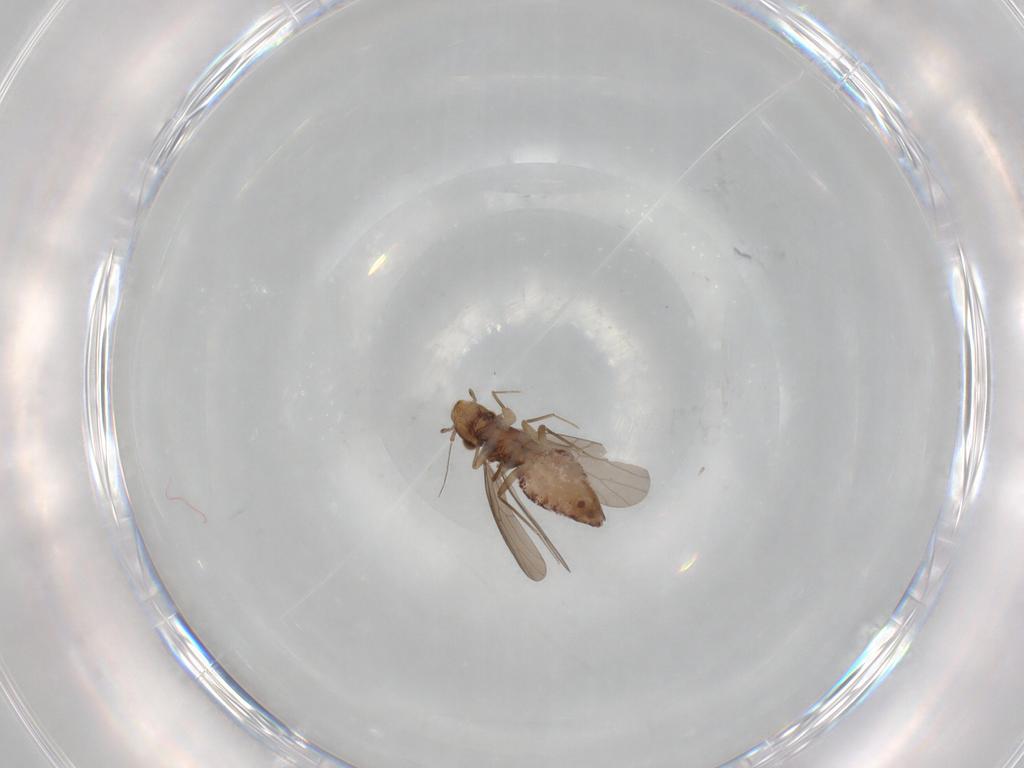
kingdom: Animalia
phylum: Arthropoda
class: Insecta
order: Psocodea
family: Lepidopsocidae
